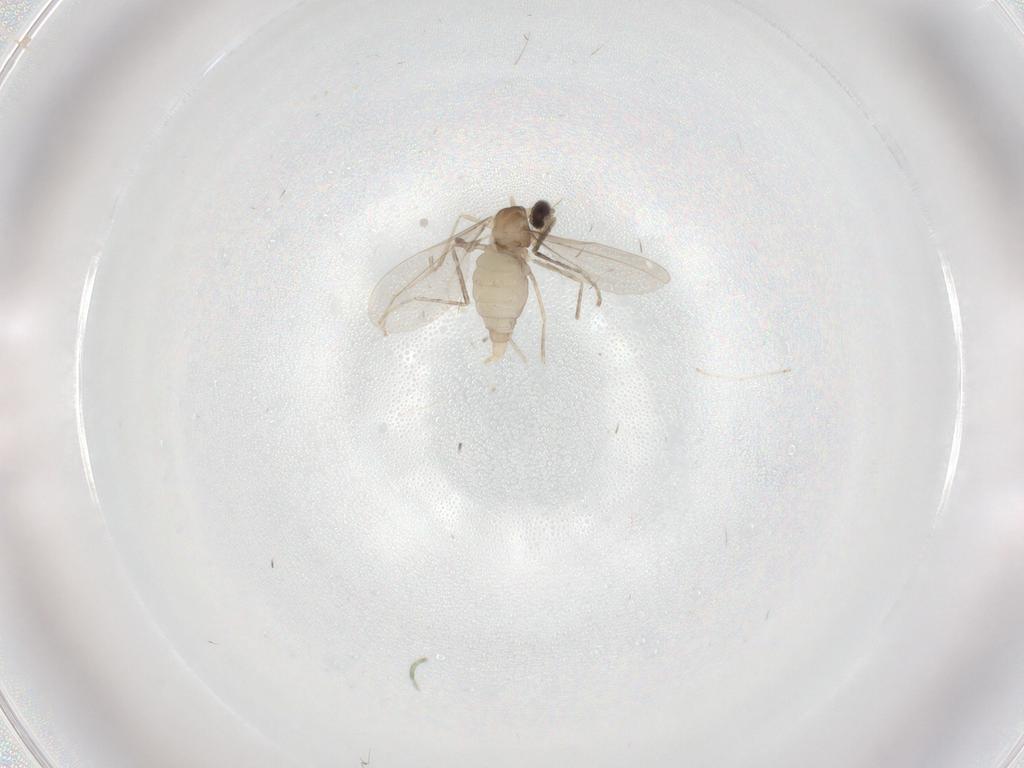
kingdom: Animalia
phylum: Arthropoda
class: Insecta
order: Diptera
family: Cecidomyiidae
